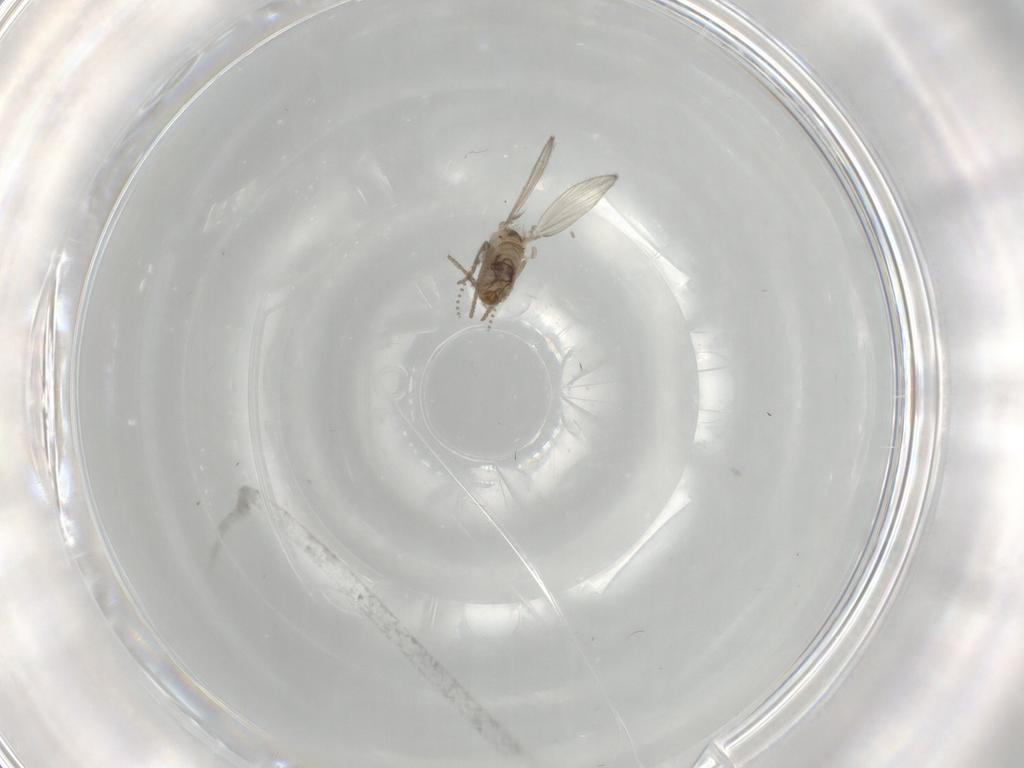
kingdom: Animalia
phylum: Arthropoda
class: Insecta
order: Diptera
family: Psychodidae
